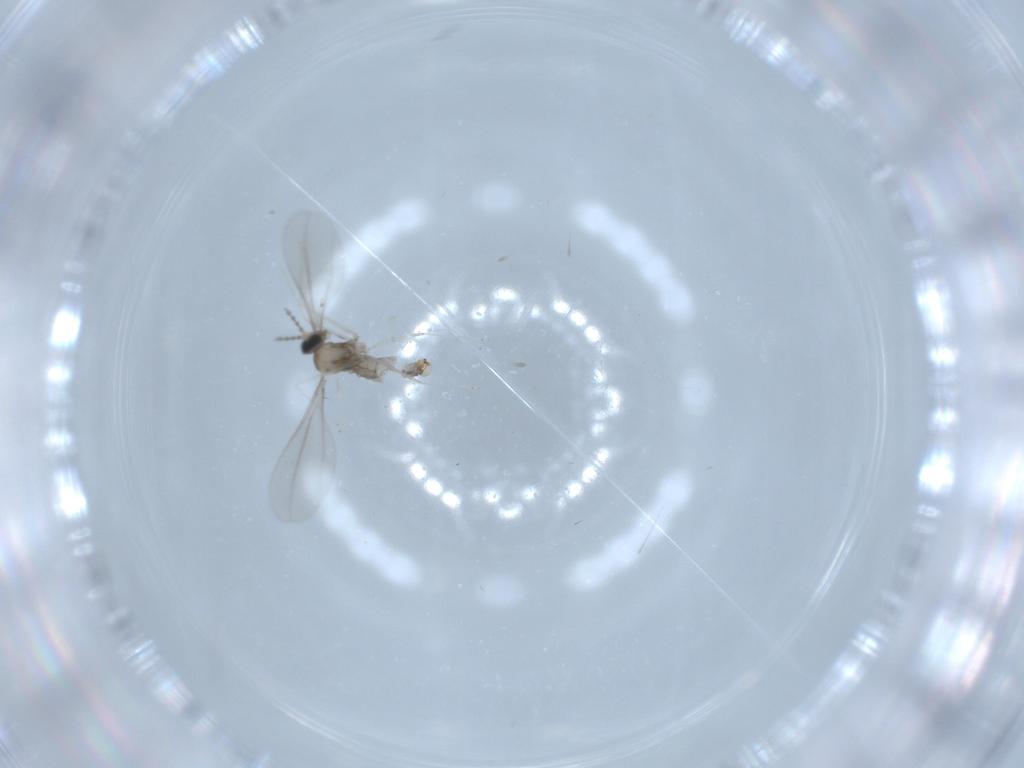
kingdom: Animalia
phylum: Arthropoda
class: Insecta
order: Diptera
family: Cecidomyiidae
